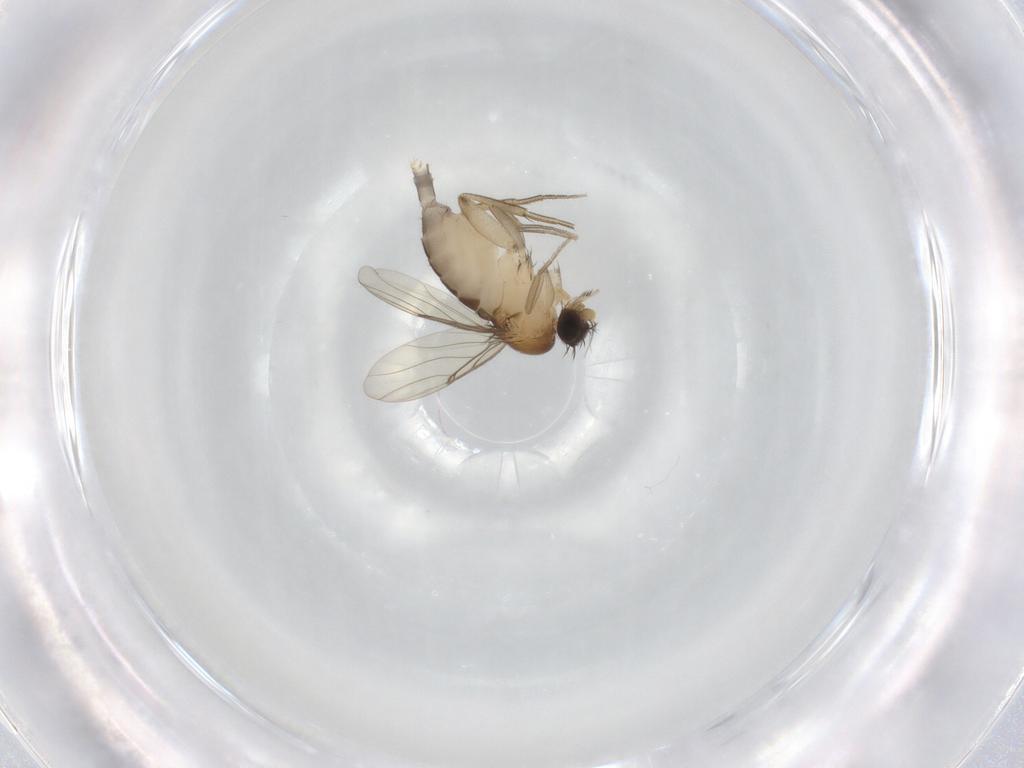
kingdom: Animalia
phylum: Arthropoda
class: Insecta
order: Diptera
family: Phoridae
